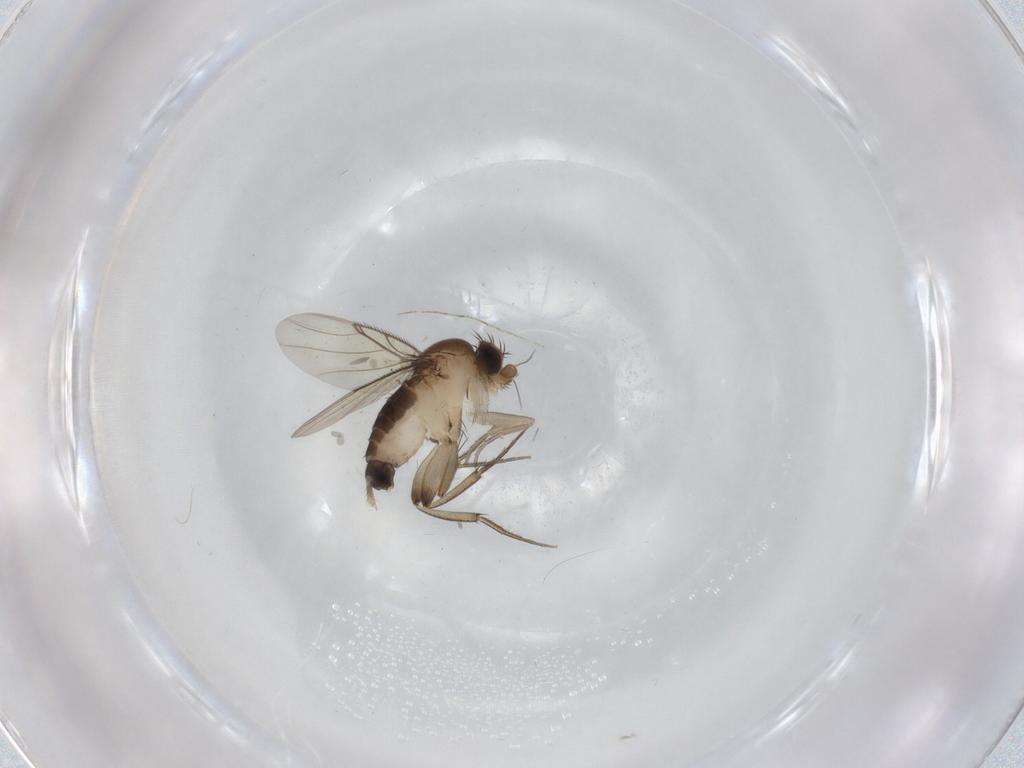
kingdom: Animalia
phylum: Arthropoda
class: Insecta
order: Diptera
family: Phoridae
